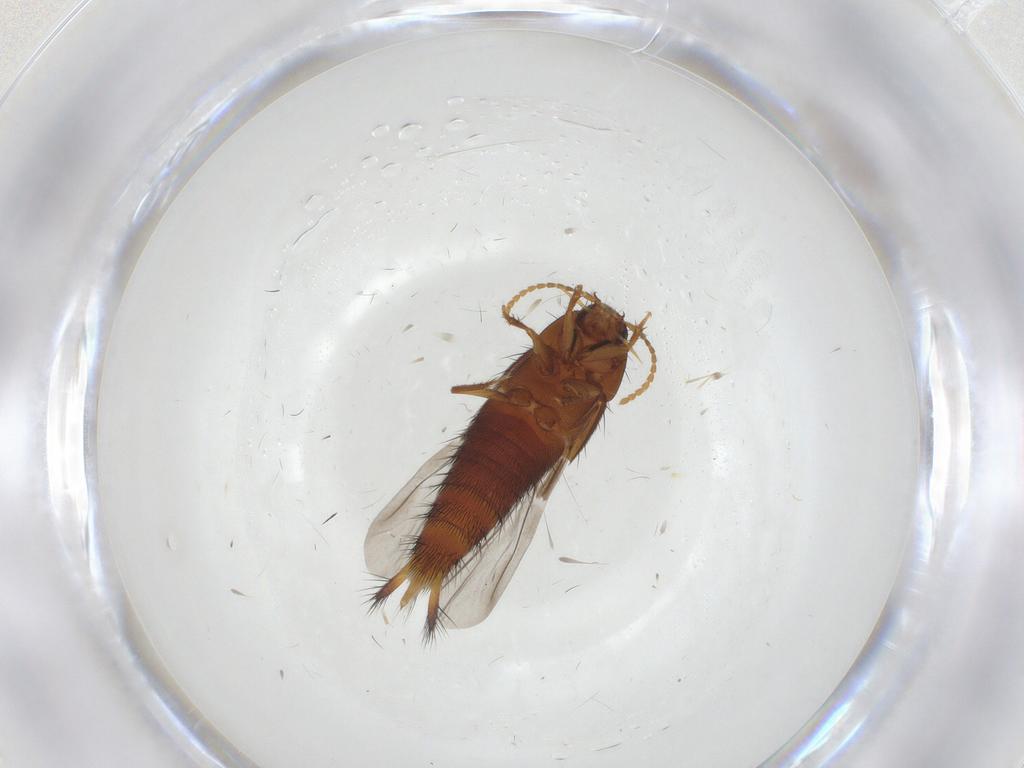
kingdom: Animalia
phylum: Arthropoda
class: Insecta
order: Coleoptera
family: Staphylinidae
